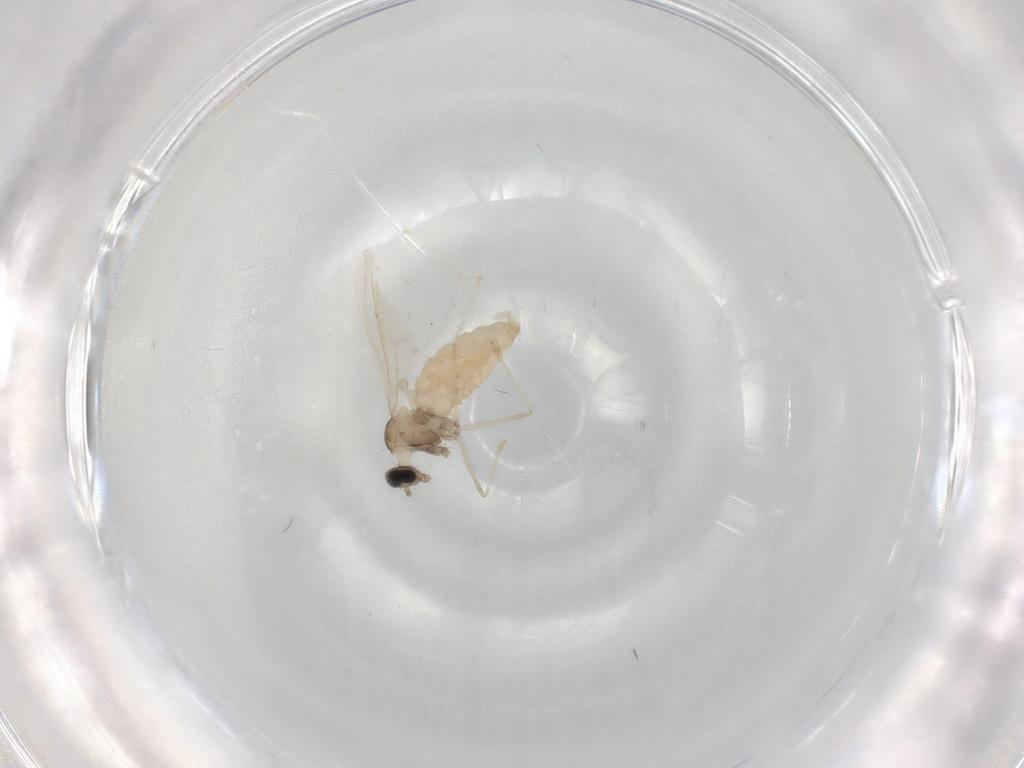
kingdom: Animalia
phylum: Arthropoda
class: Insecta
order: Diptera
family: Cecidomyiidae
